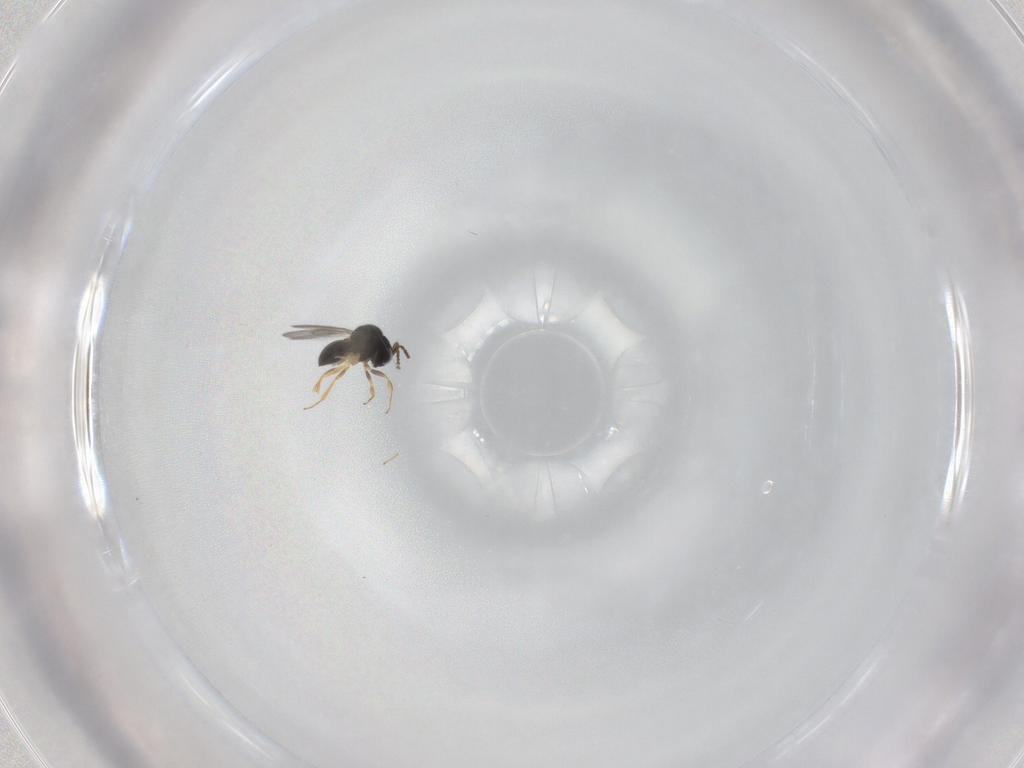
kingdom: Animalia
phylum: Arthropoda
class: Insecta
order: Hymenoptera
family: Scelionidae
